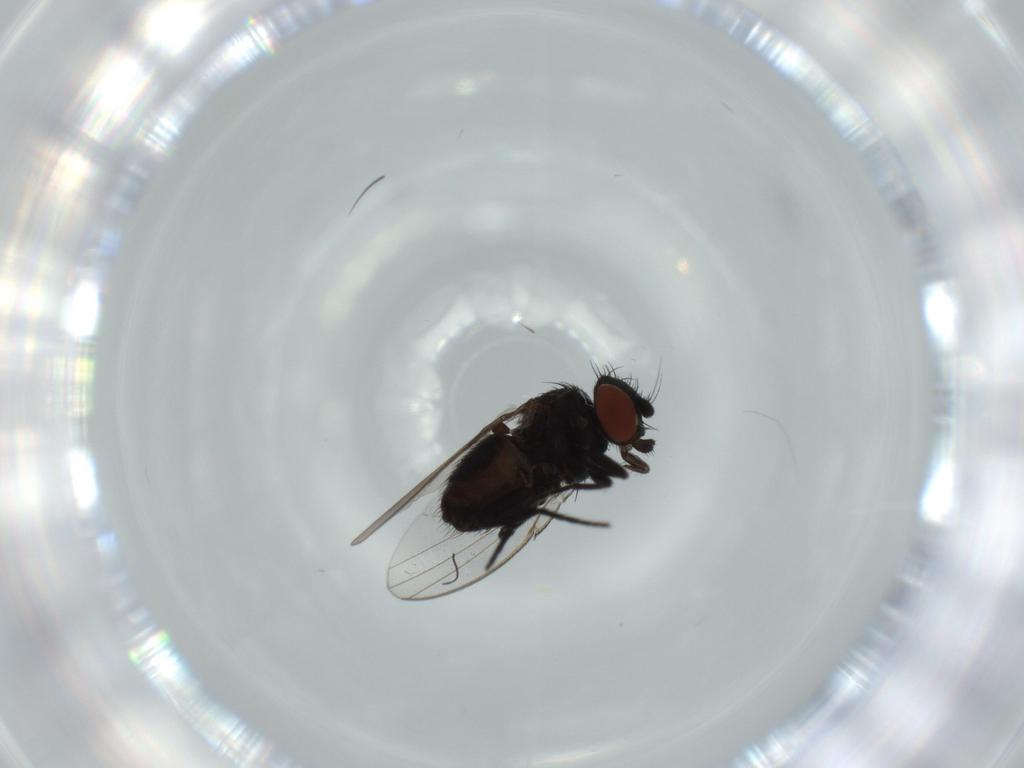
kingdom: Animalia
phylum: Arthropoda
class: Insecta
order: Diptera
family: Milichiidae
